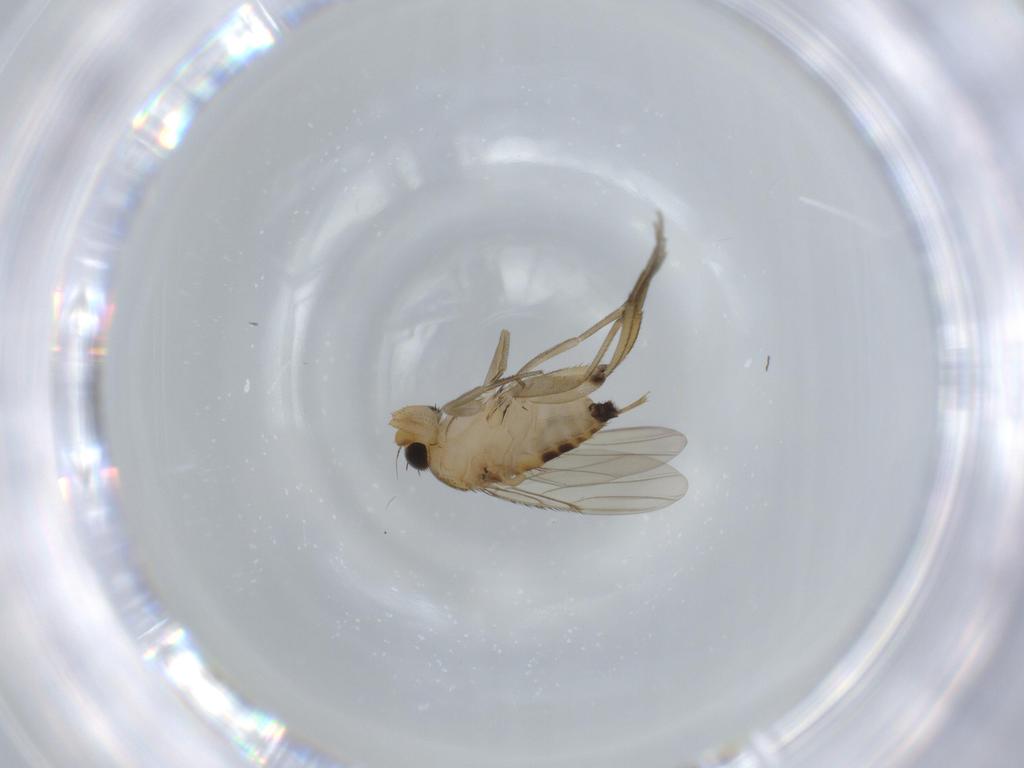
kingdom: Animalia
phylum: Arthropoda
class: Insecta
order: Diptera
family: Phoridae
